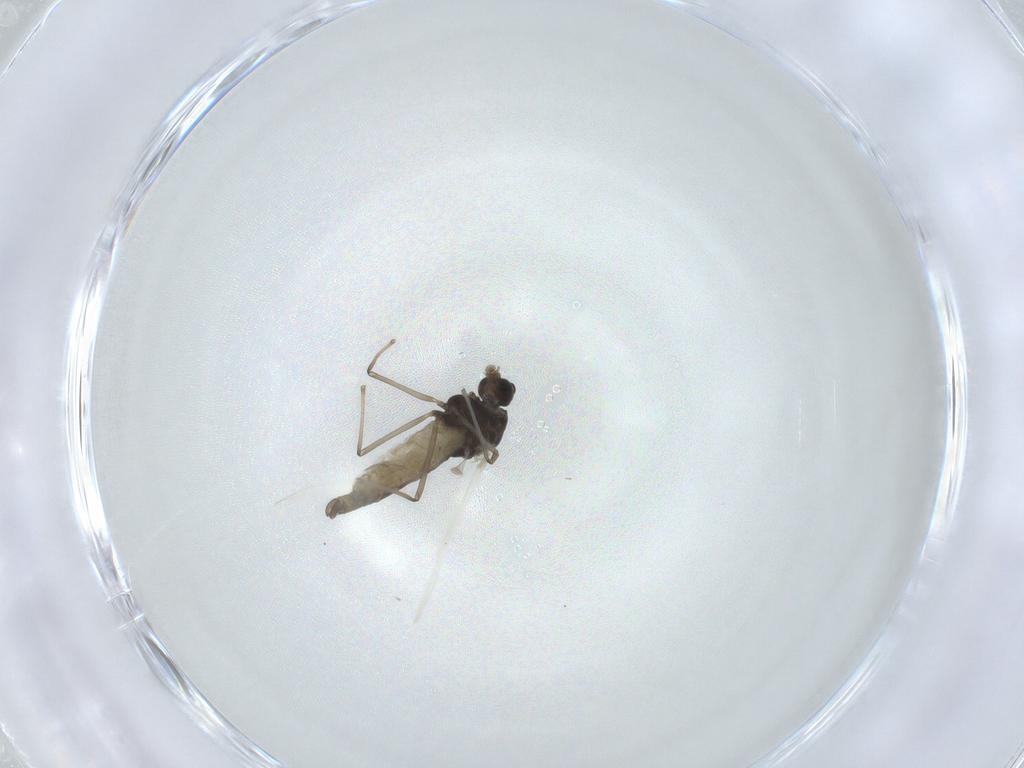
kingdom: Animalia
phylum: Arthropoda
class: Insecta
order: Diptera
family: Chironomidae
